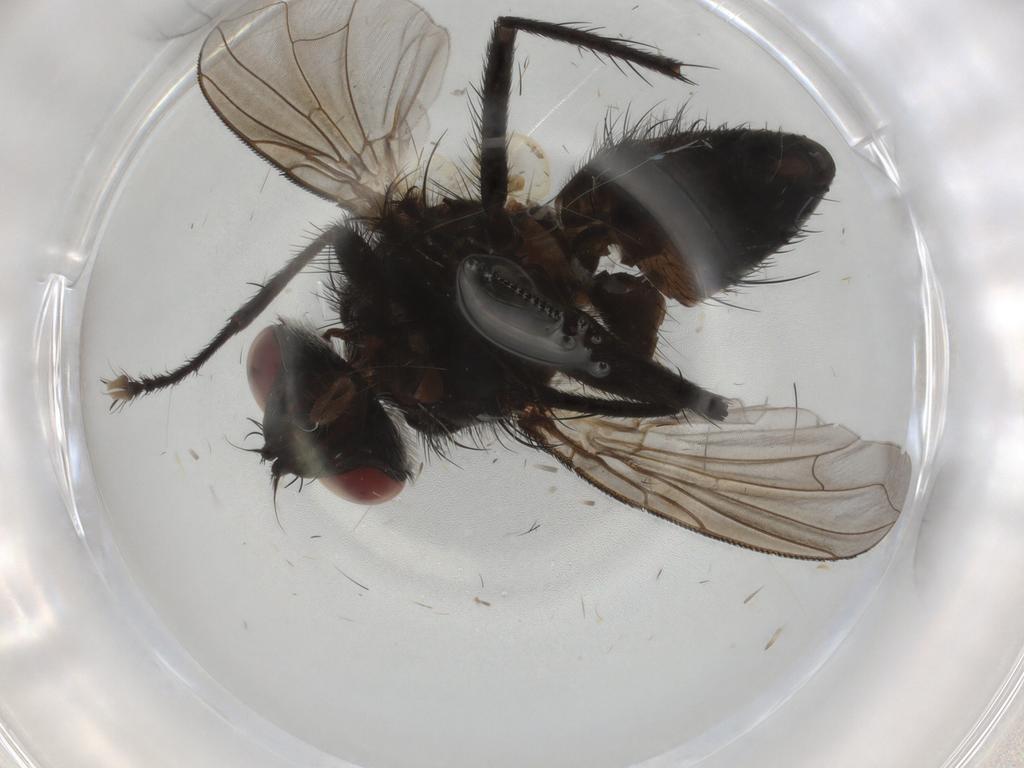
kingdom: Animalia
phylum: Arthropoda
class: Insecta
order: Diptera
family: Tachinidae
